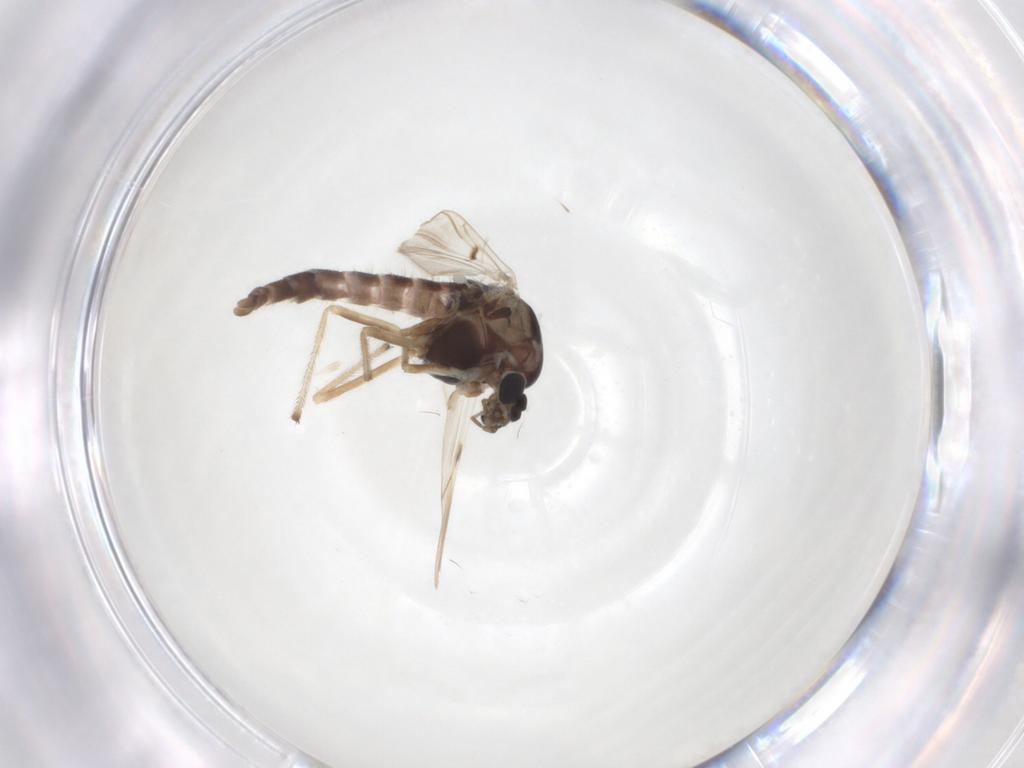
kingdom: Animalia
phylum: Arthropoda
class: Insecta
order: Diptera
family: Chironomidae
